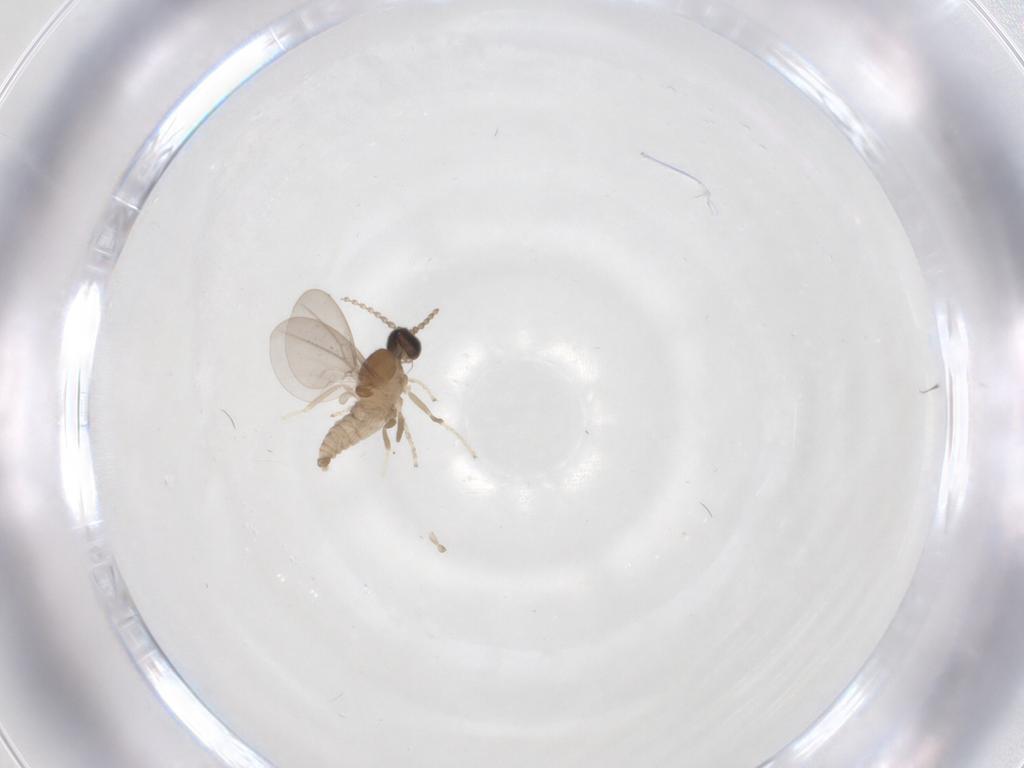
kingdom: Animalia
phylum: Arthropoda
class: Insecta
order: Diptera
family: Cecidomyiidae
